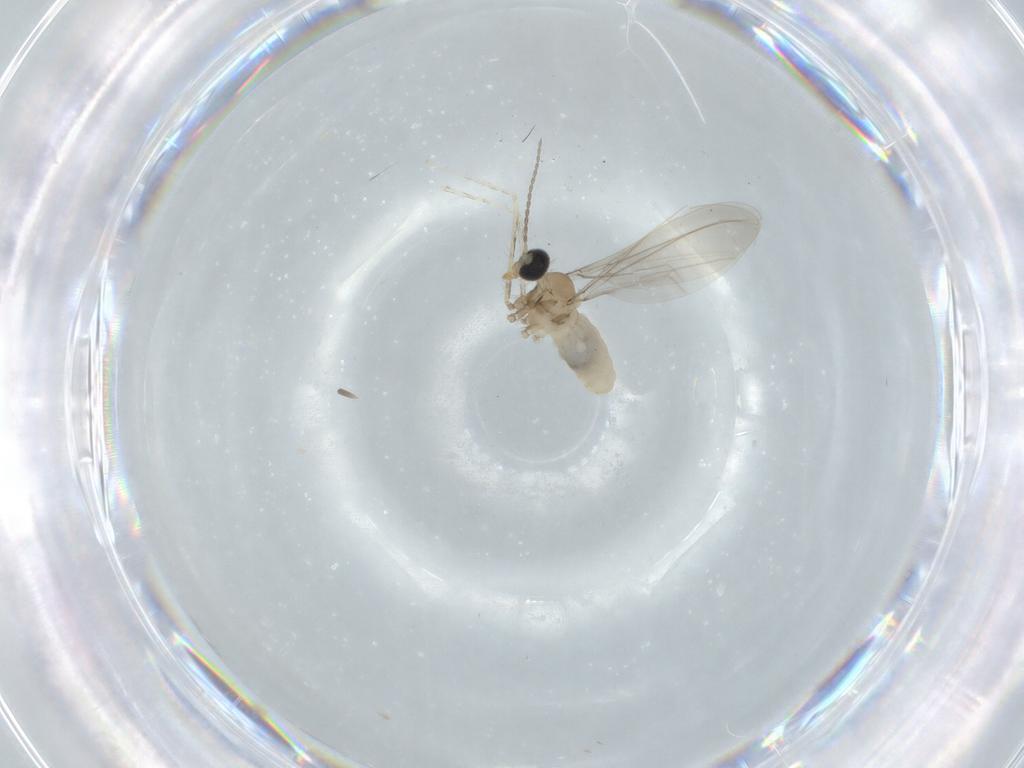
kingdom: Animalia
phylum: Arthropoda
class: Insecta
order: Diptera
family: Cecidomyiidae
